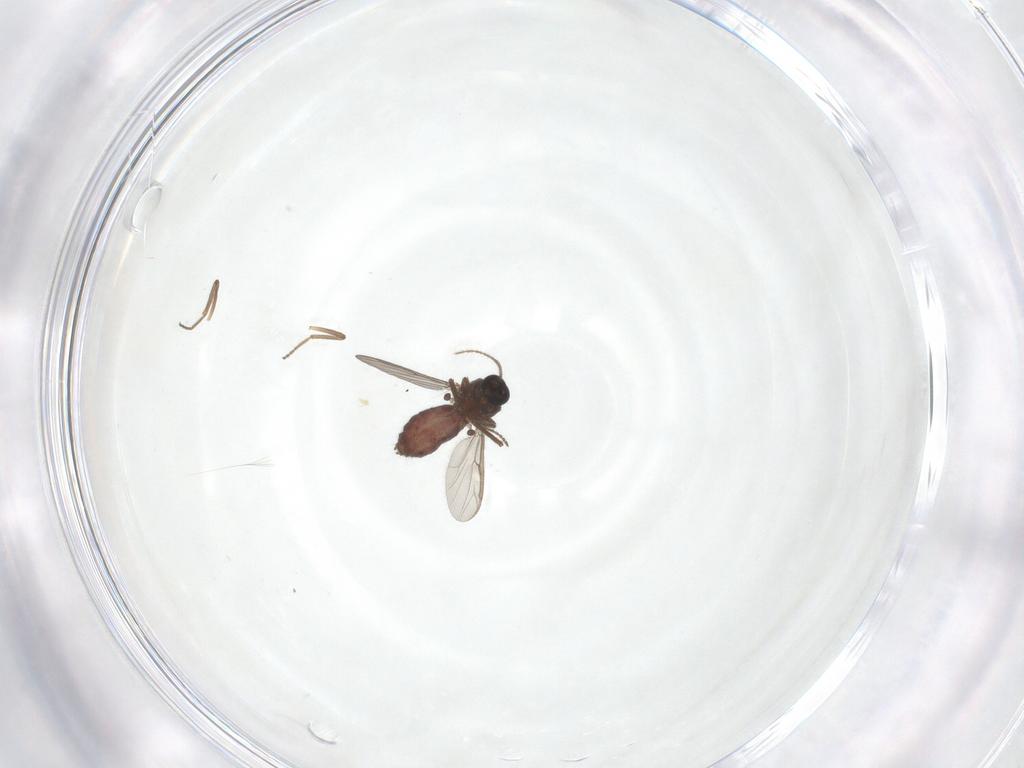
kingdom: Animalia
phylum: Arthropoda
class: Insecta
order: Diptera
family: Ceratopogonidae
